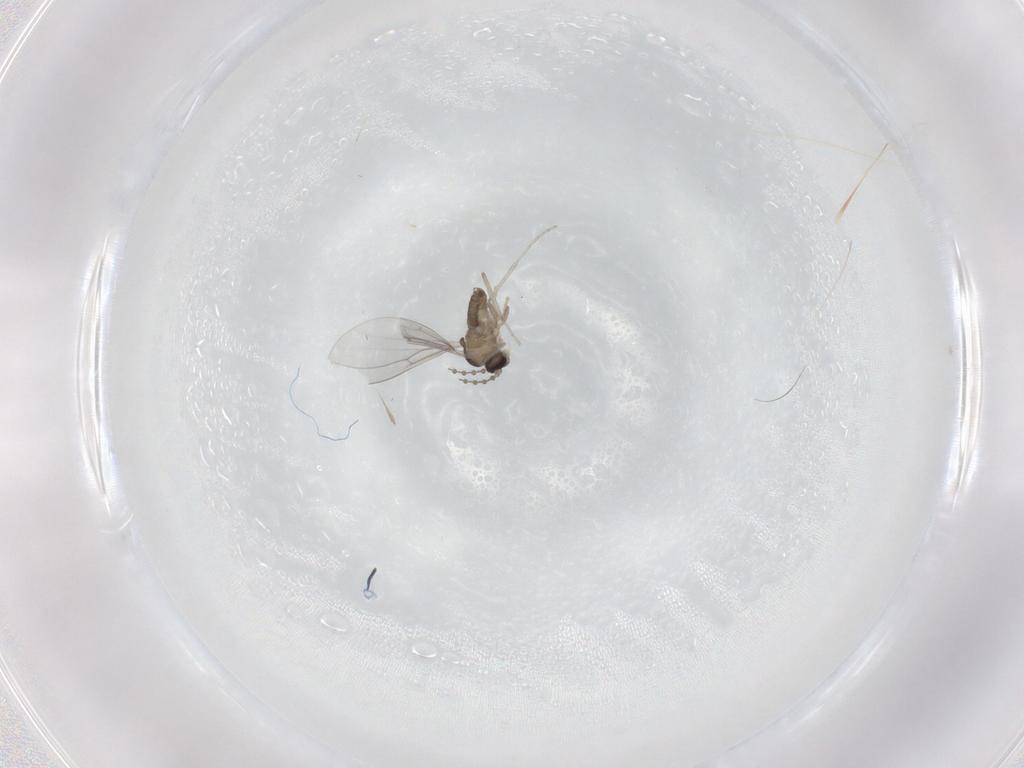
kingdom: Animalia
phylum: Arthropoda
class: Insecta
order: Diptera
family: Cecidomyiidae
